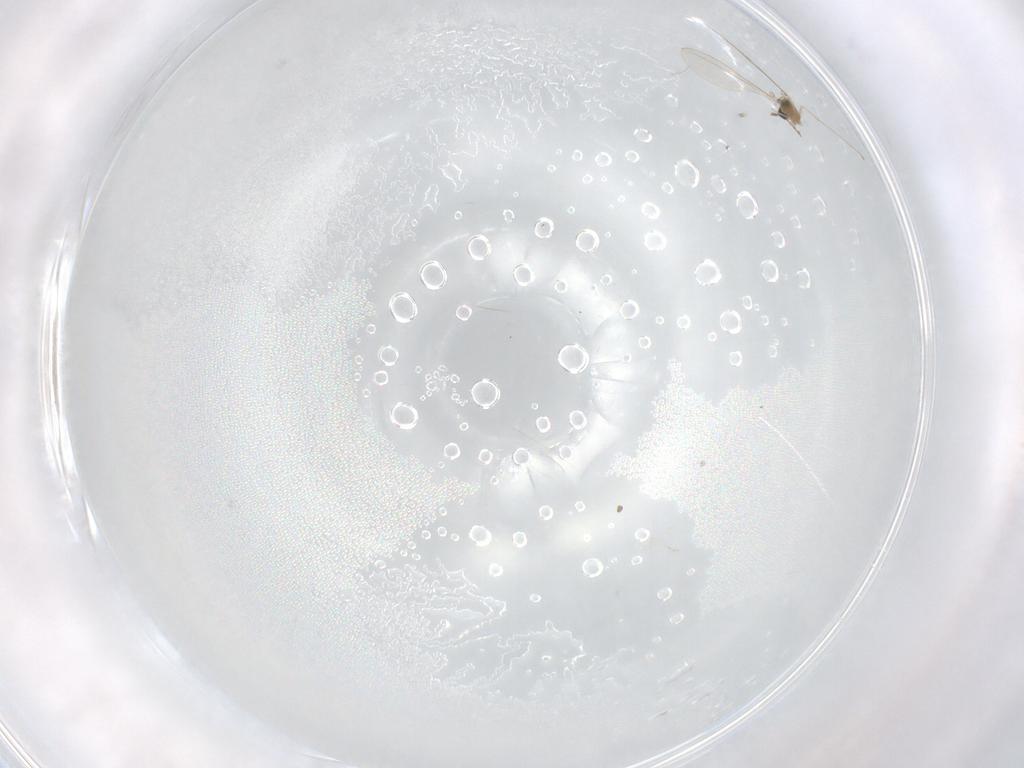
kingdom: Animalia
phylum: Arthropoda
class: Insecta
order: Diptera
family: Cecidomyiidae
